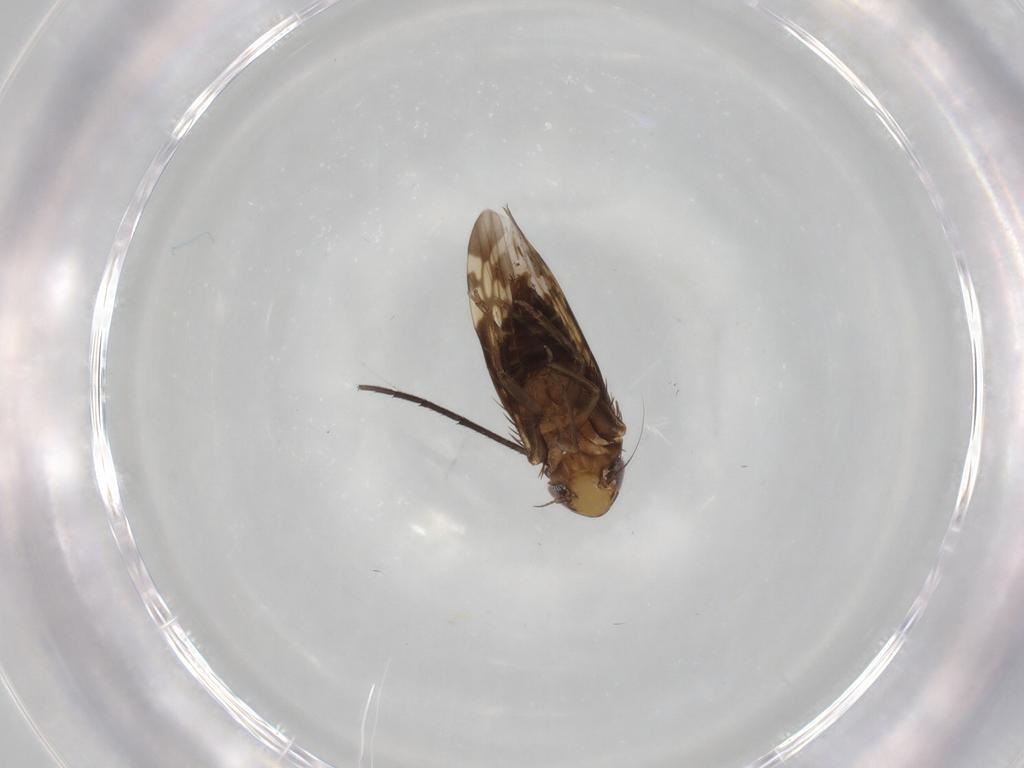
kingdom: Animalia
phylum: Arthropoda
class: Insecta
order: Hemiptera
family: Cicadellidae
